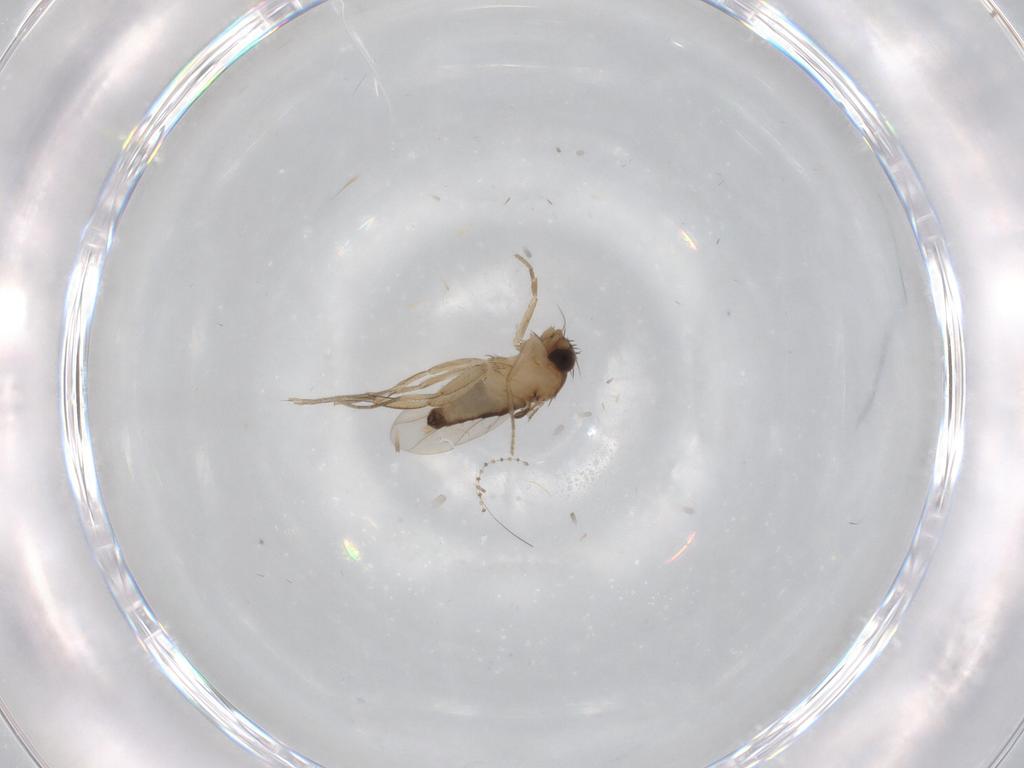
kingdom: Animalia
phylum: Arthropoda
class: Insecta
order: Diptera
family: Phoridae
